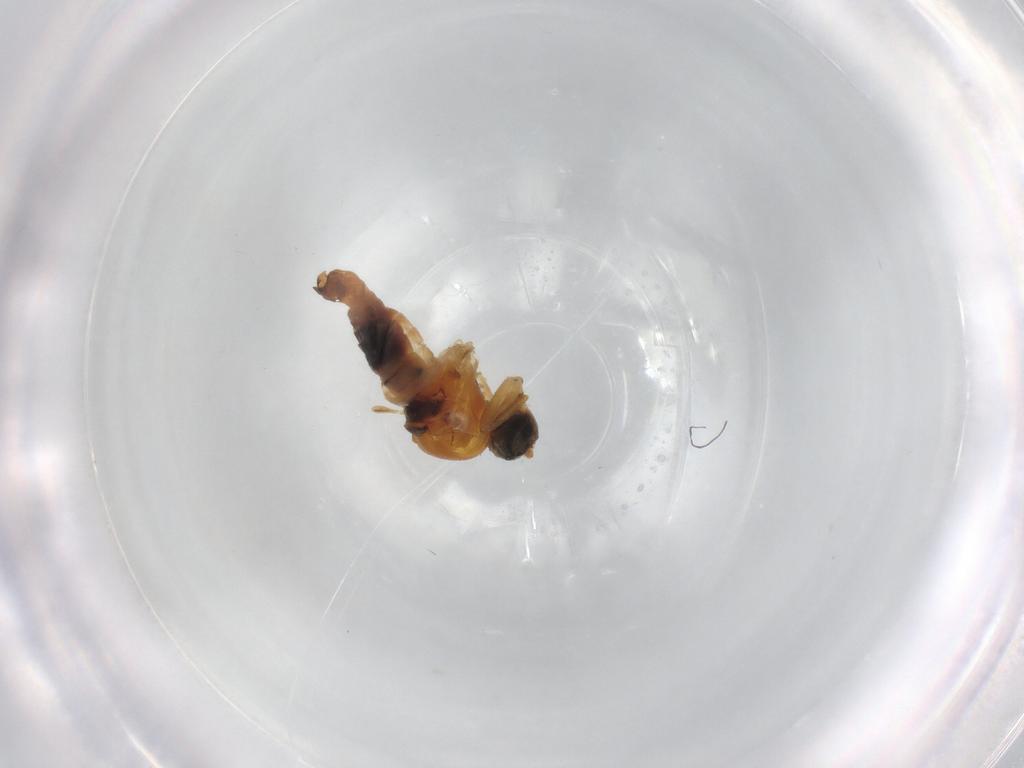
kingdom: Animalia
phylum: Arthropoda
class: Insecta
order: Diptera
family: Hybotidae
